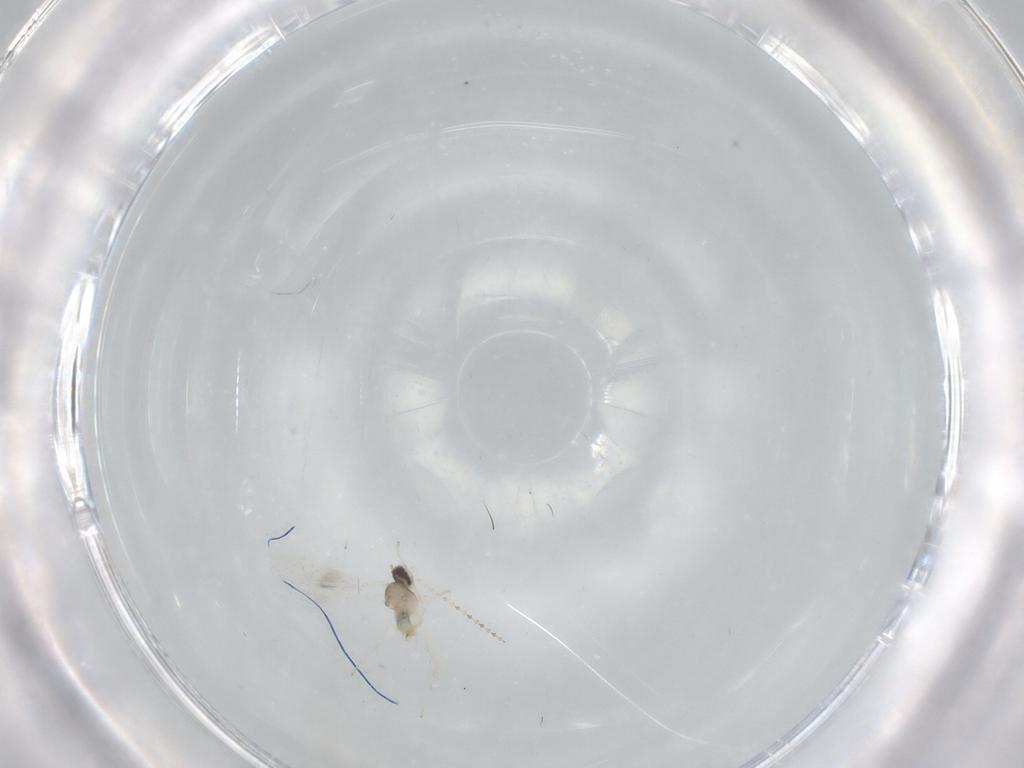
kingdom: Animalia
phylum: Arthropoda
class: Insecta
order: Diptera
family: Cecidomyiidae
